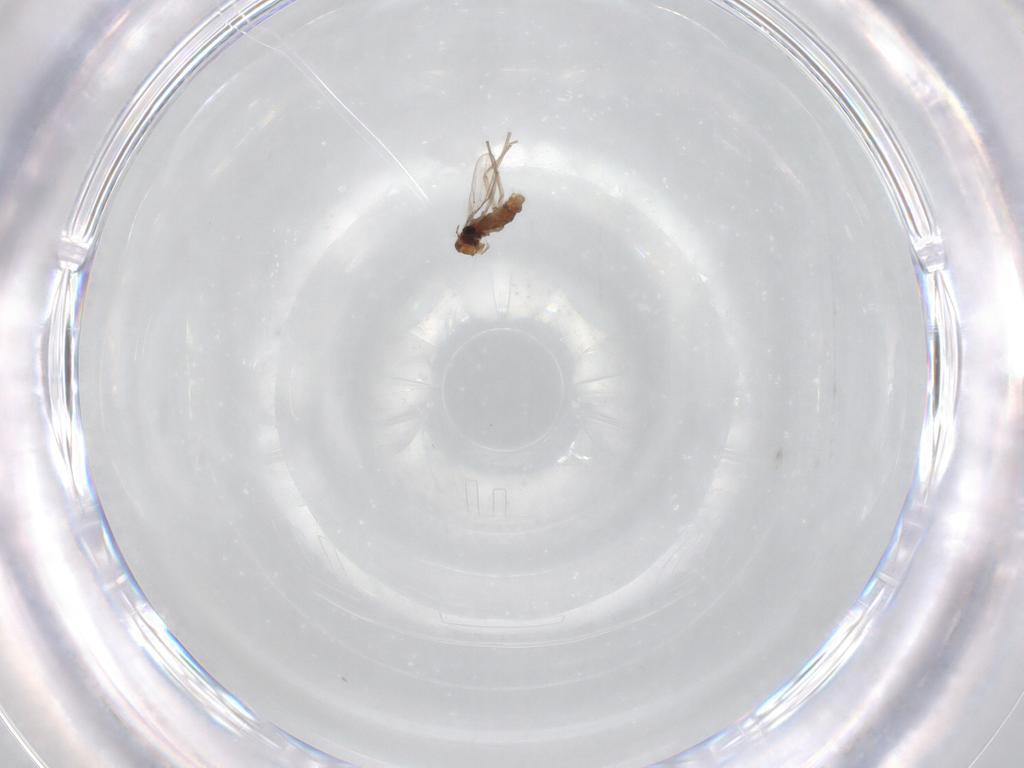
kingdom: Animalia
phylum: Arthropoda
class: Insecta
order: Diptera
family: Chironomidae
